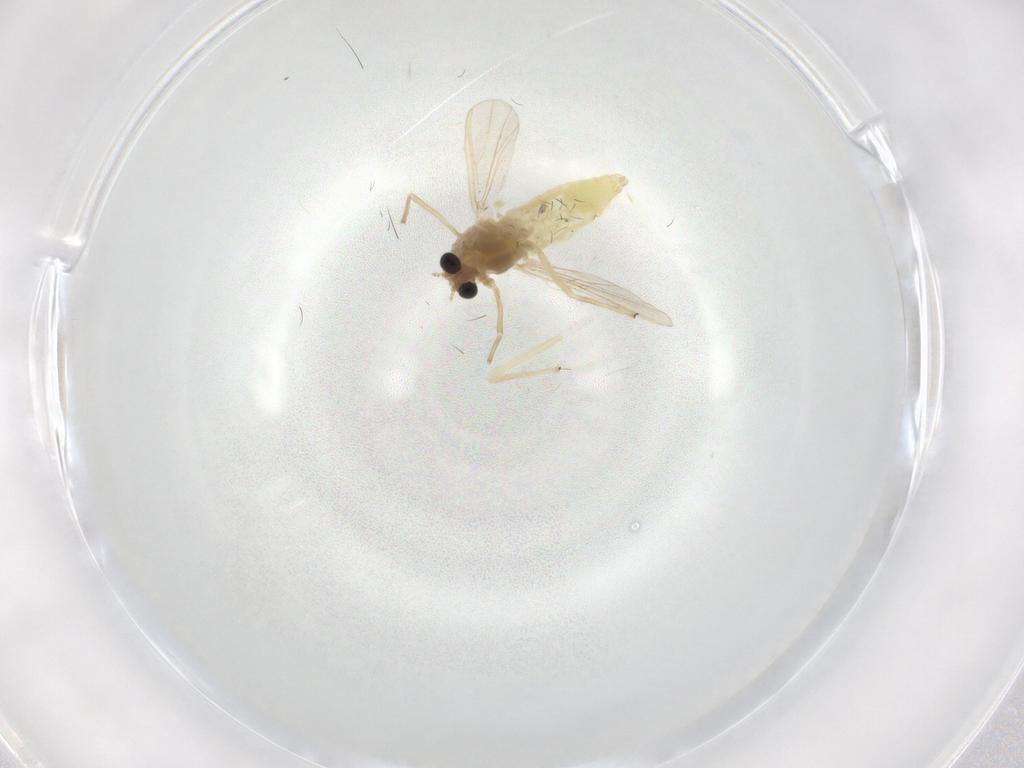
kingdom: Animalia
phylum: Arthropoda
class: Insecta
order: Diptera
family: Chironomidae
